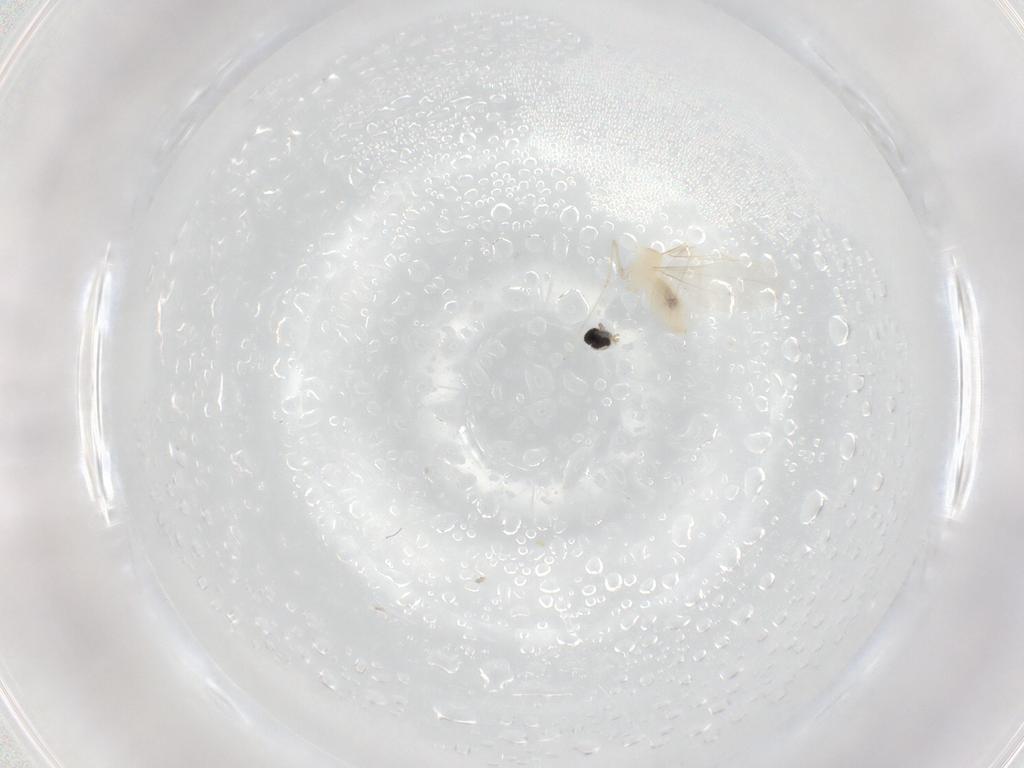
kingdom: Animalia
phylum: Arthropoda
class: Insecta
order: Diptera
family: Cecidomyiidae
